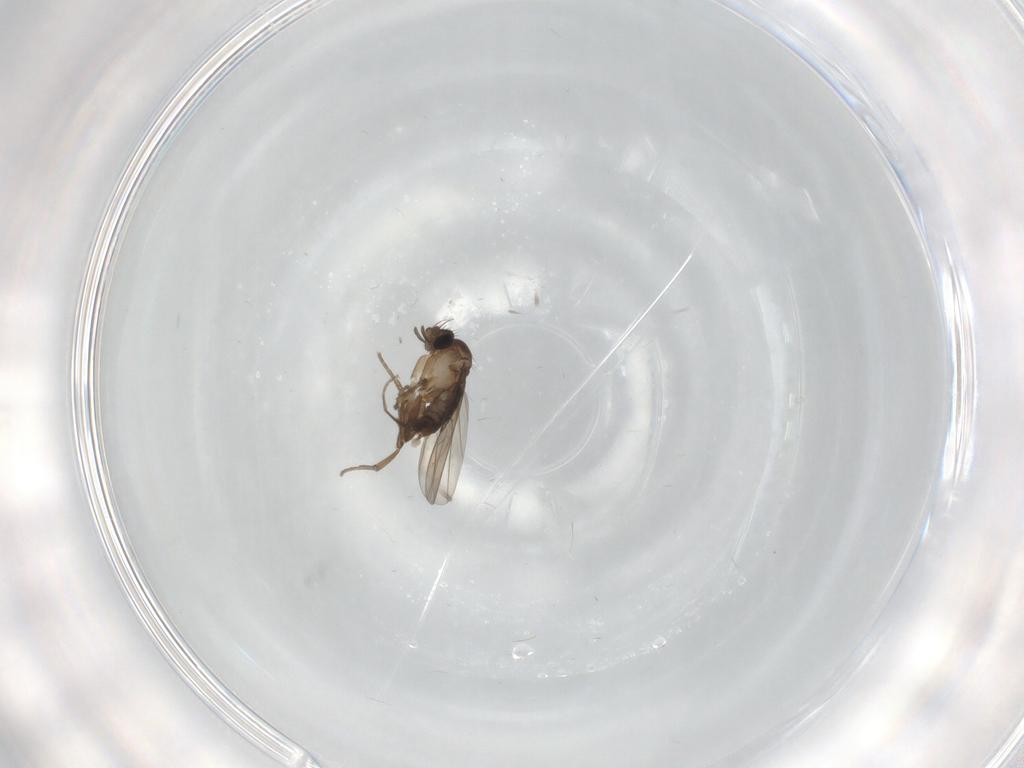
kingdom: Animalia
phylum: Arthropoda
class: Insecta
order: Diptera
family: Cecidomyiidae
